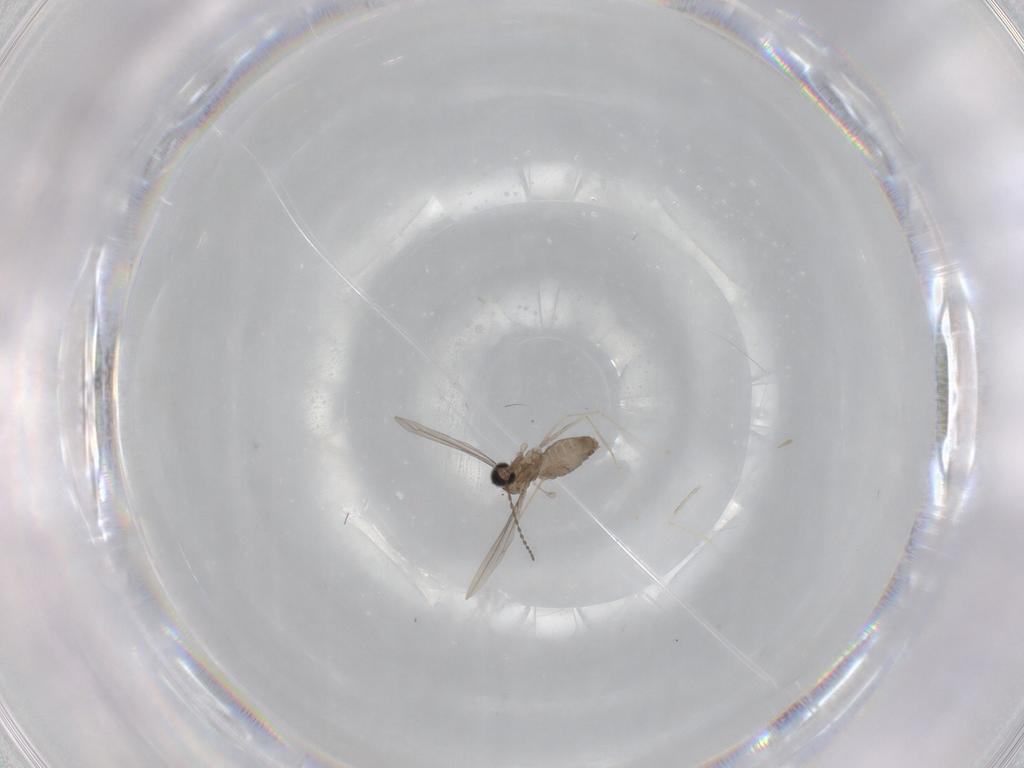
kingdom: Animalia
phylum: Arthropoda
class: Insecta
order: Diptera
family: Cecidomyiidae
